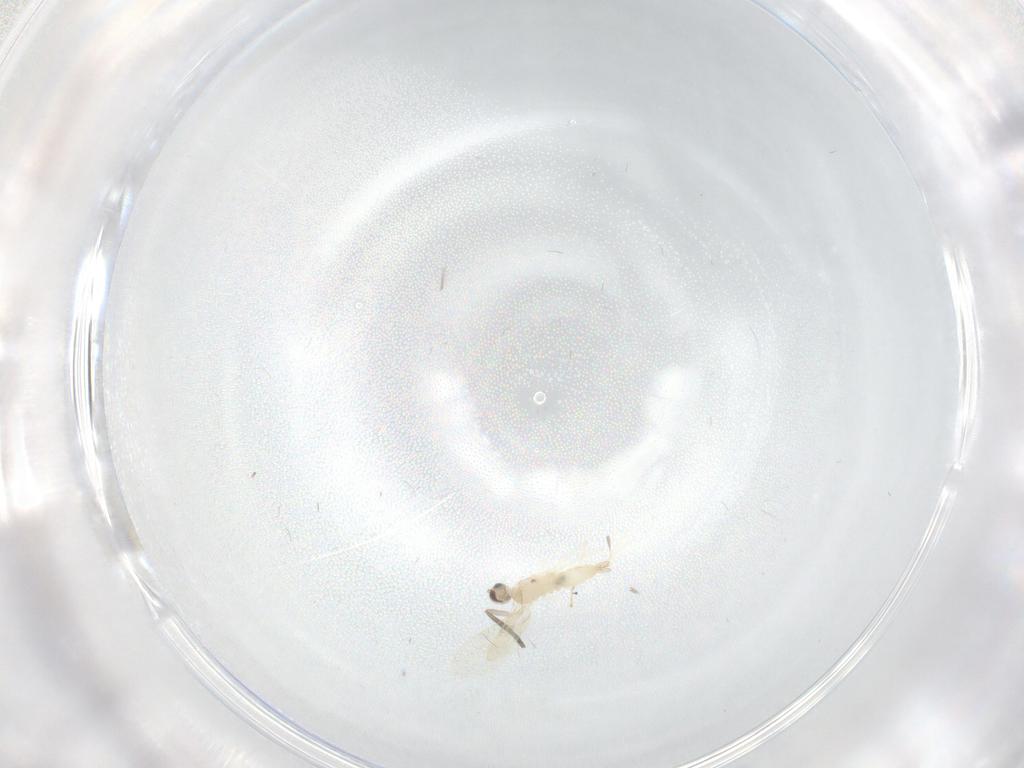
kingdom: Animalia
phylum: Arthropoda
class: Insecta
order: Diptera
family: Cecidomyiidae
